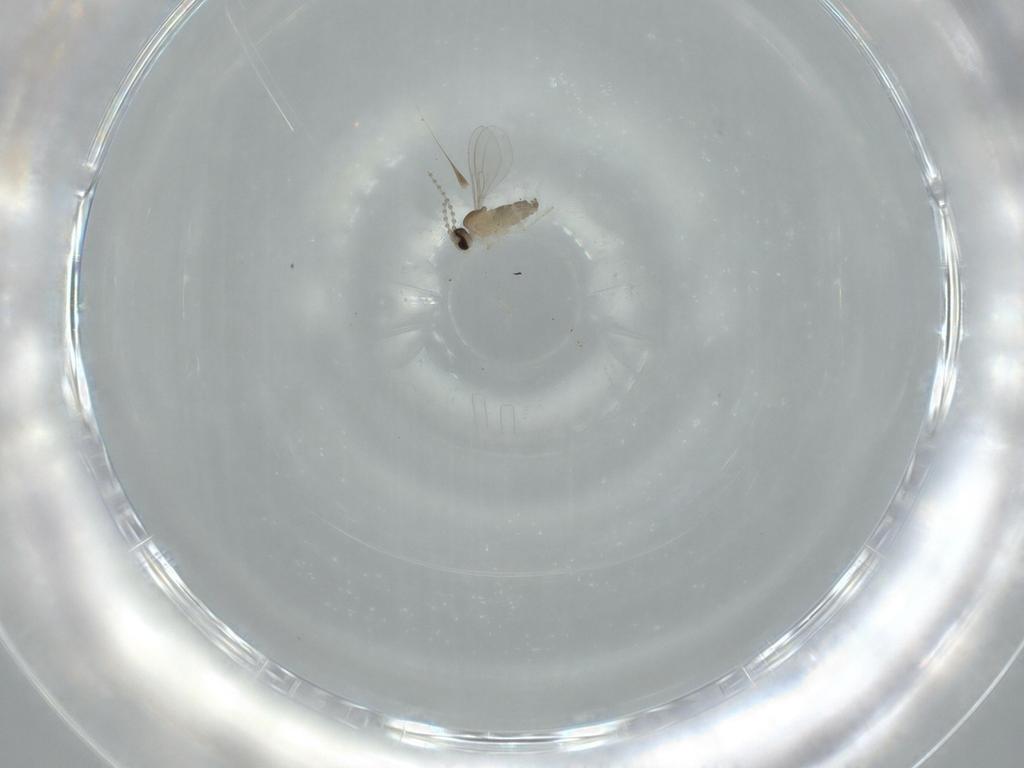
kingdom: Animalia
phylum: Arthropoda
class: Insecta
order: Diptera
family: Cecidomyiidae
